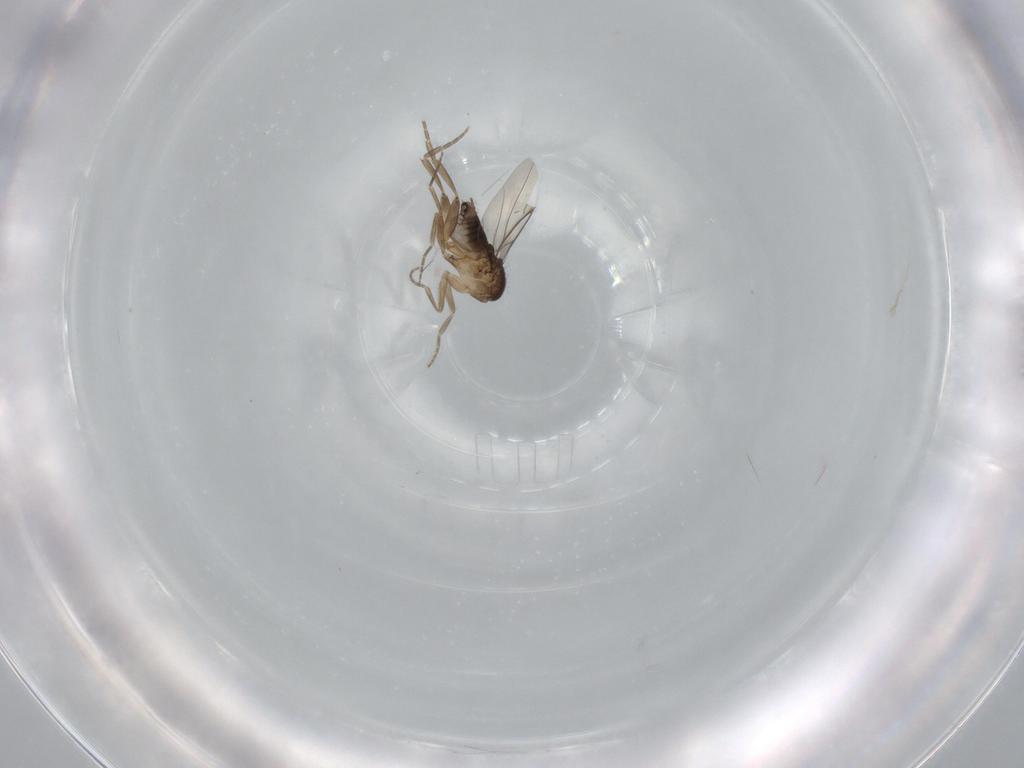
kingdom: Animalia
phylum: Arthropoda
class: Insecta
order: Diptera
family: Phoridae
